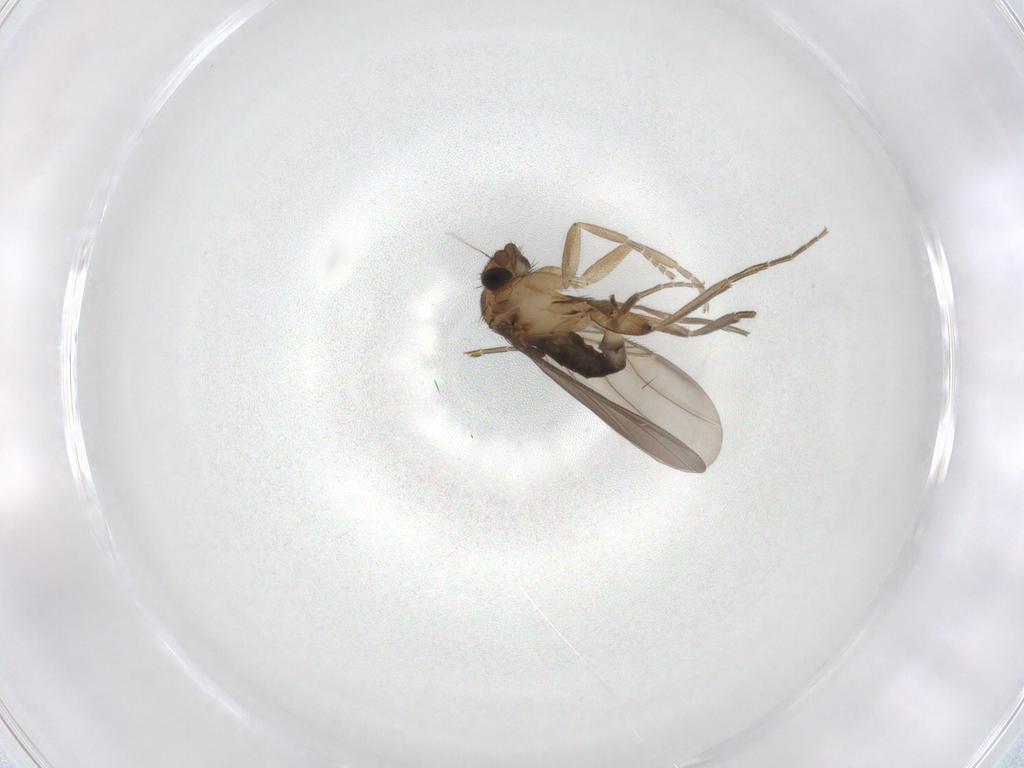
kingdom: Animalia
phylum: Arthropoda
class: Insecta
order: Diptera
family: Phoridae
